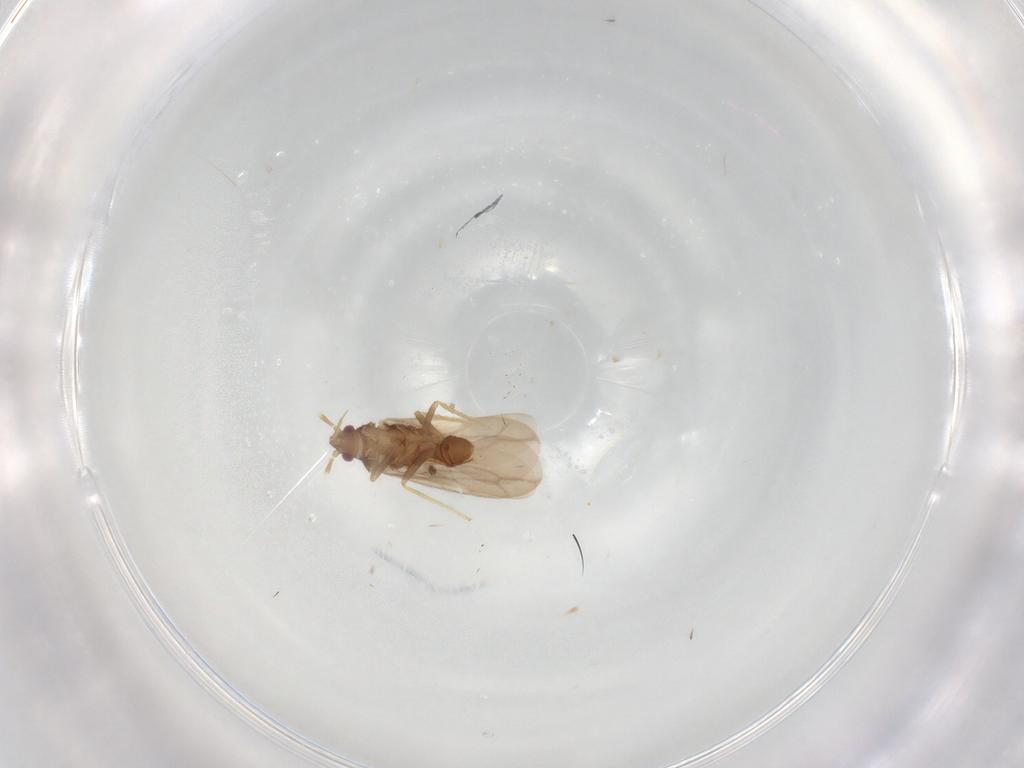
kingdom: Animalia
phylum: Arthropoda
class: Insecta
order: Hemiptera
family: Ceratocombidae
